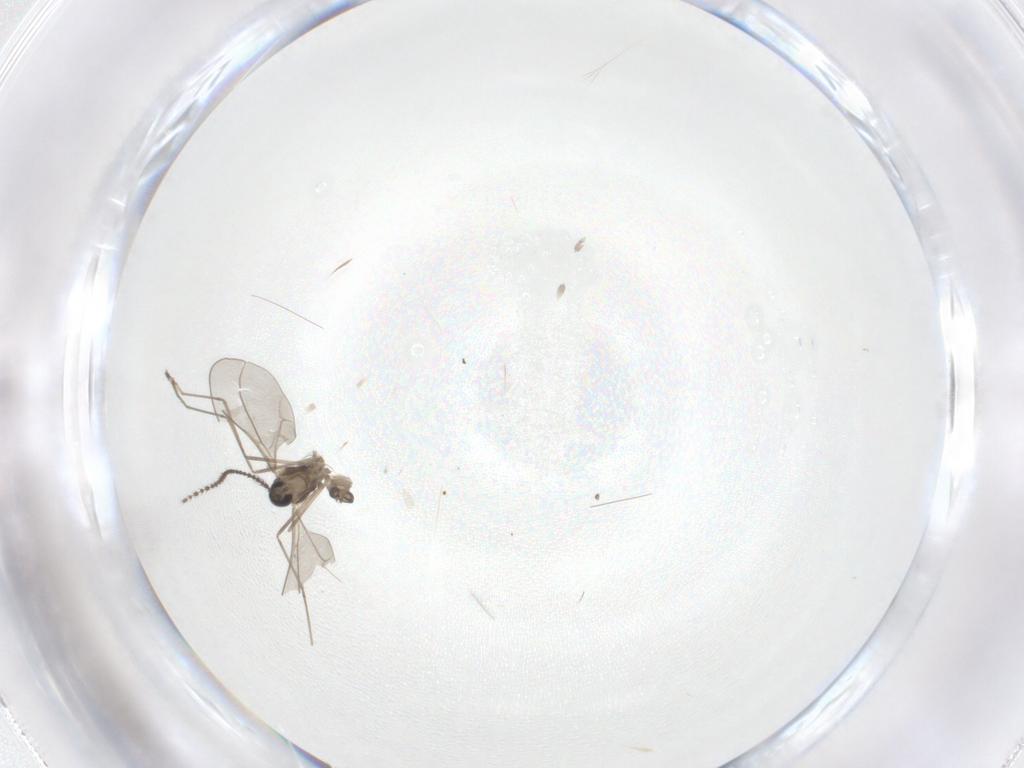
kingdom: Animalia
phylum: Arthropoda
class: Insecta
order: Diptera
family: Cecidomyiidae
